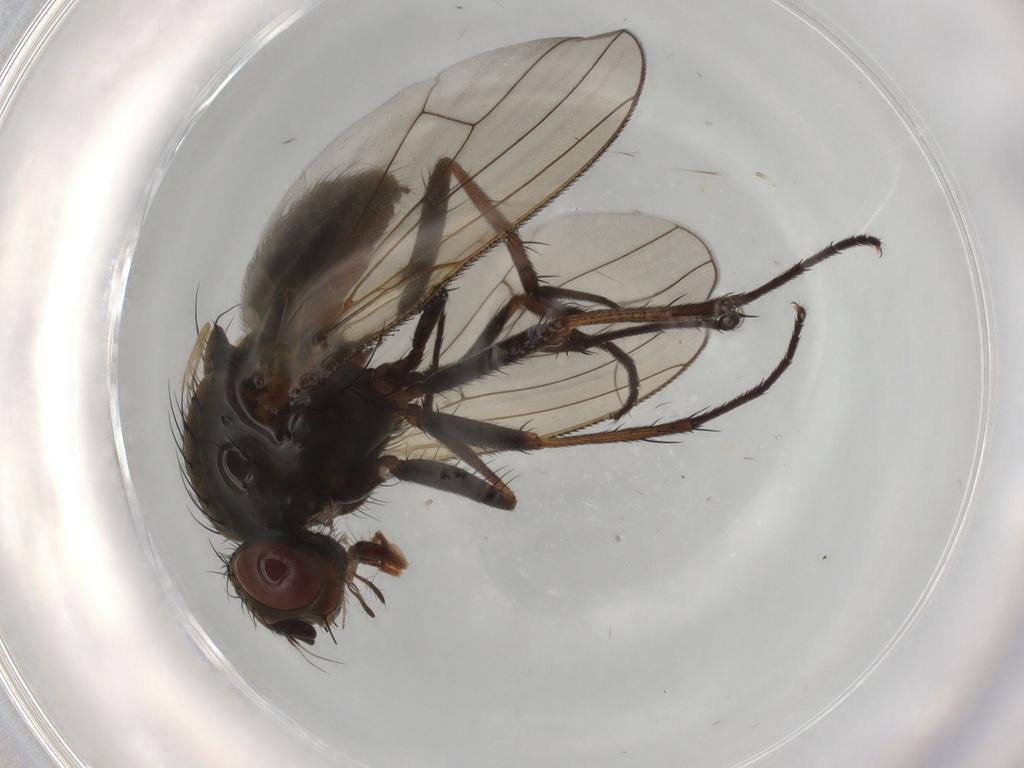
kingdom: Animalia
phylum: Arthropoda
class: Insecta
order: Diptera
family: Anthomyiidae
